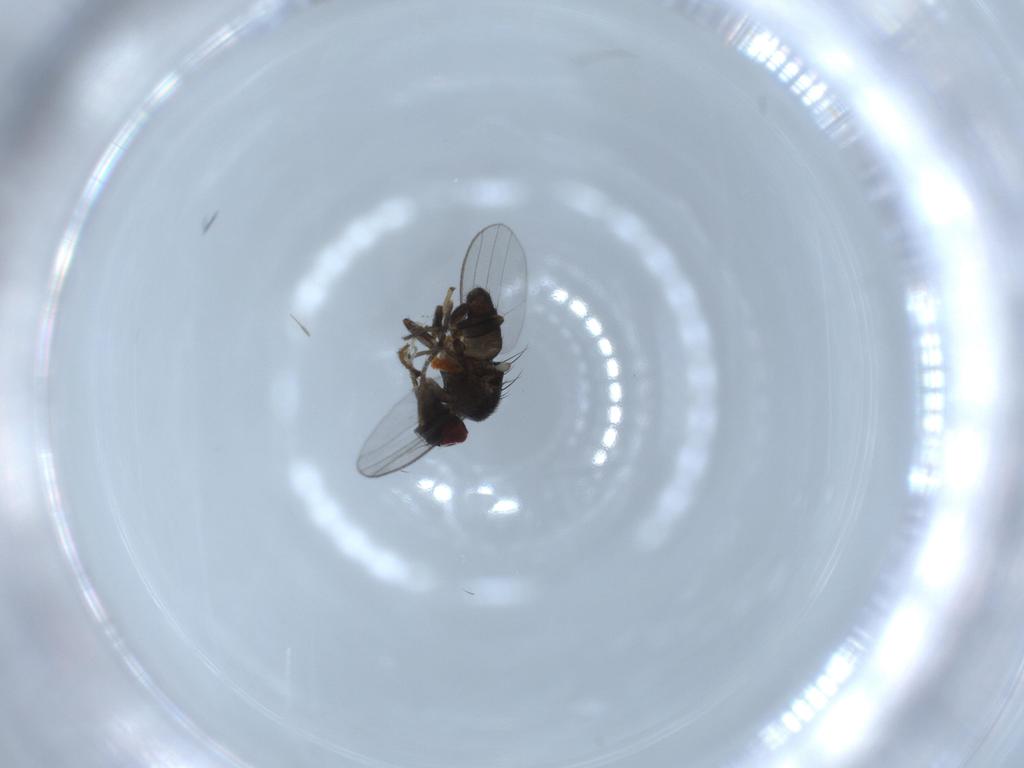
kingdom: Animalia
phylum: Arthropoda
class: Insecta
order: Diptera
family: Milichiidae
